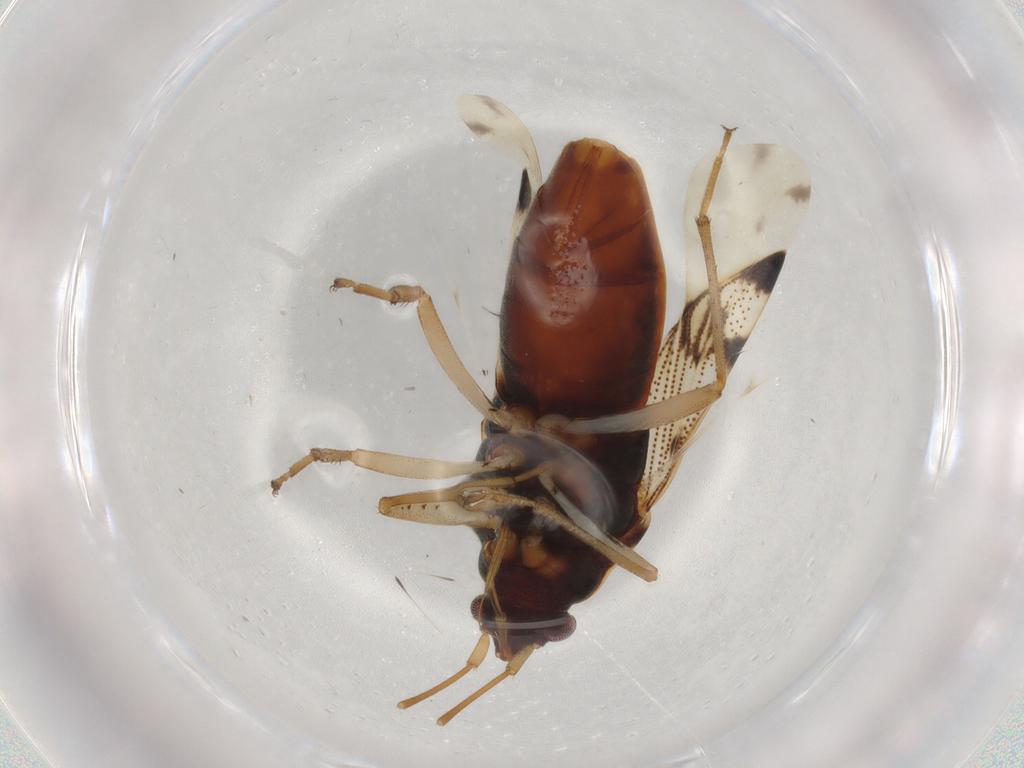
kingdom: Animalia
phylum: Arthropoda
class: Insecta
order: Hemiptera
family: Rhyparochromidae
